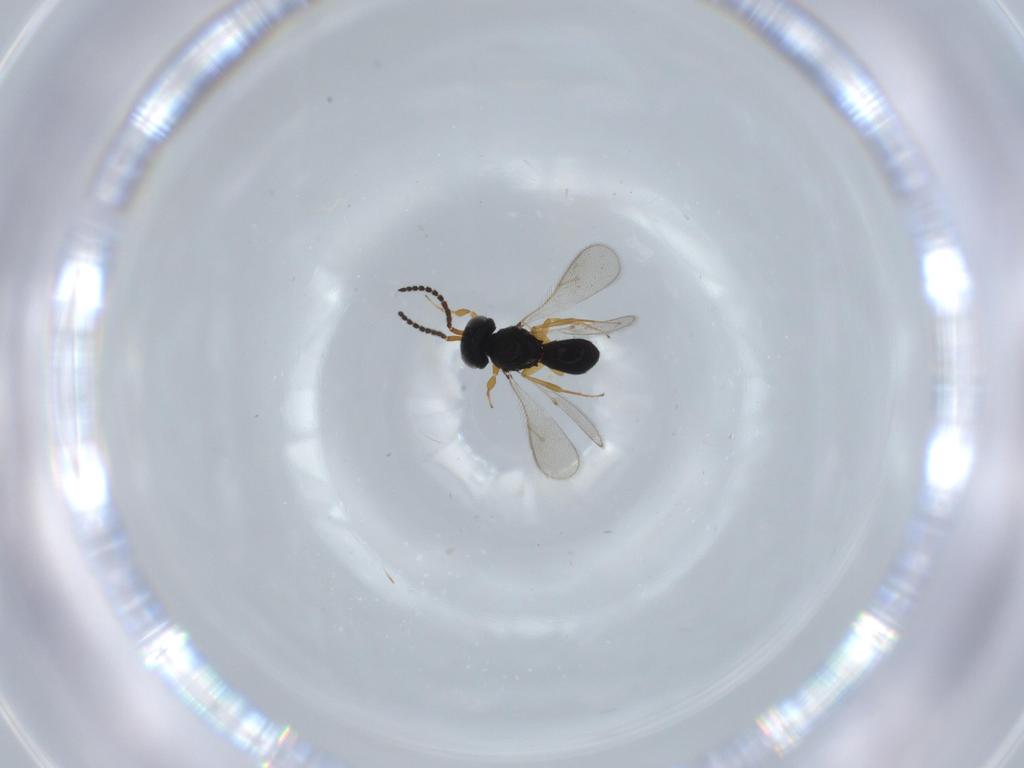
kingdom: Animalia
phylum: Arthropoda
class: Insecta
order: Hymenoptera
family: Scelionidae
